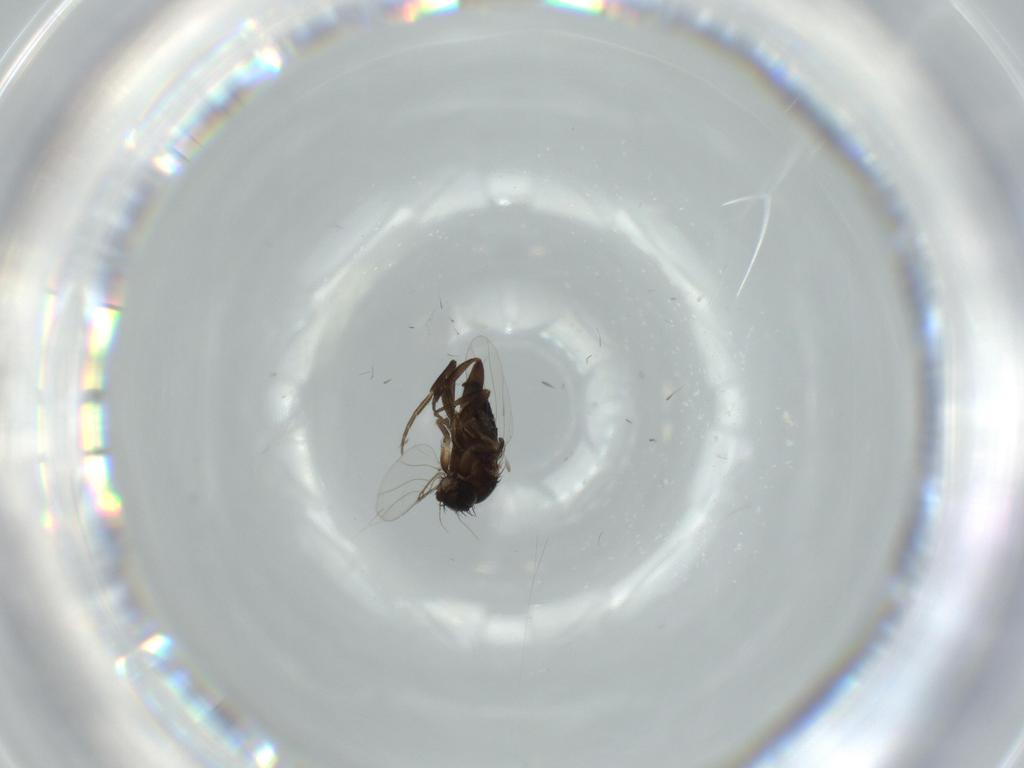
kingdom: Animalia
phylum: Arthropoda
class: Insecta
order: Diptera
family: Phoridae
